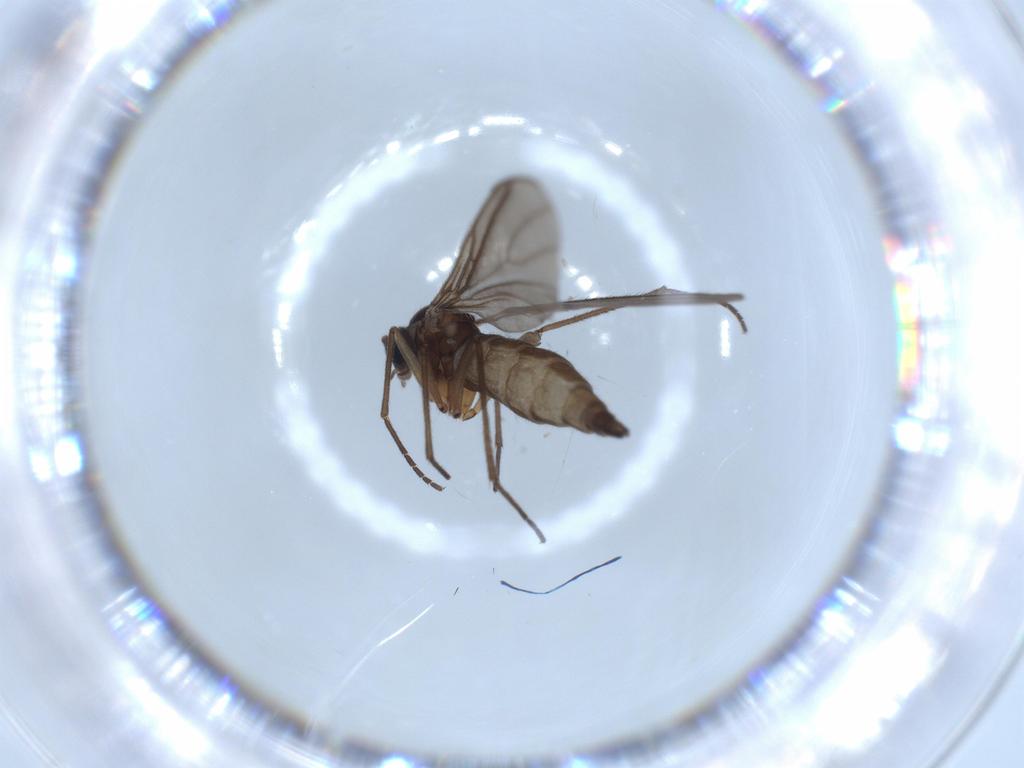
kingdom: Animalia
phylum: Arthropoda
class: Insecta
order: Diptera
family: Sciaridae
